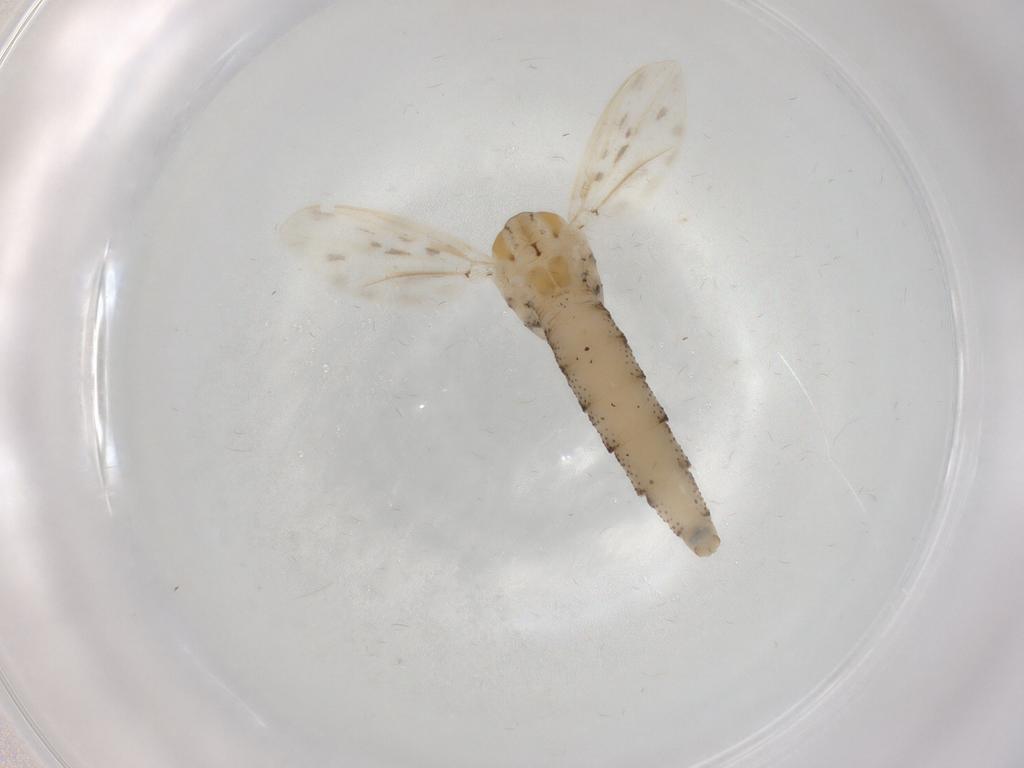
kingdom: Animalia
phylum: Arthropoda
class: Insecta
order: Diptera
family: Chaoboridae
